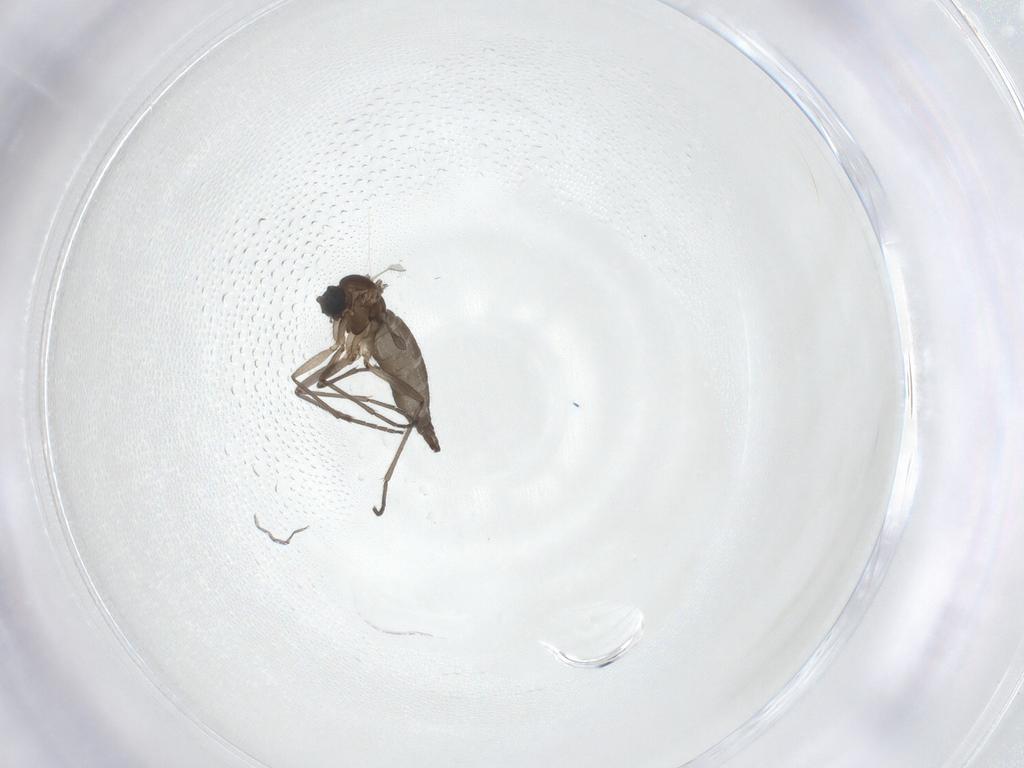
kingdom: Animalia
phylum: Arthropoda
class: Insecta
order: Diptera
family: Sciaridae
